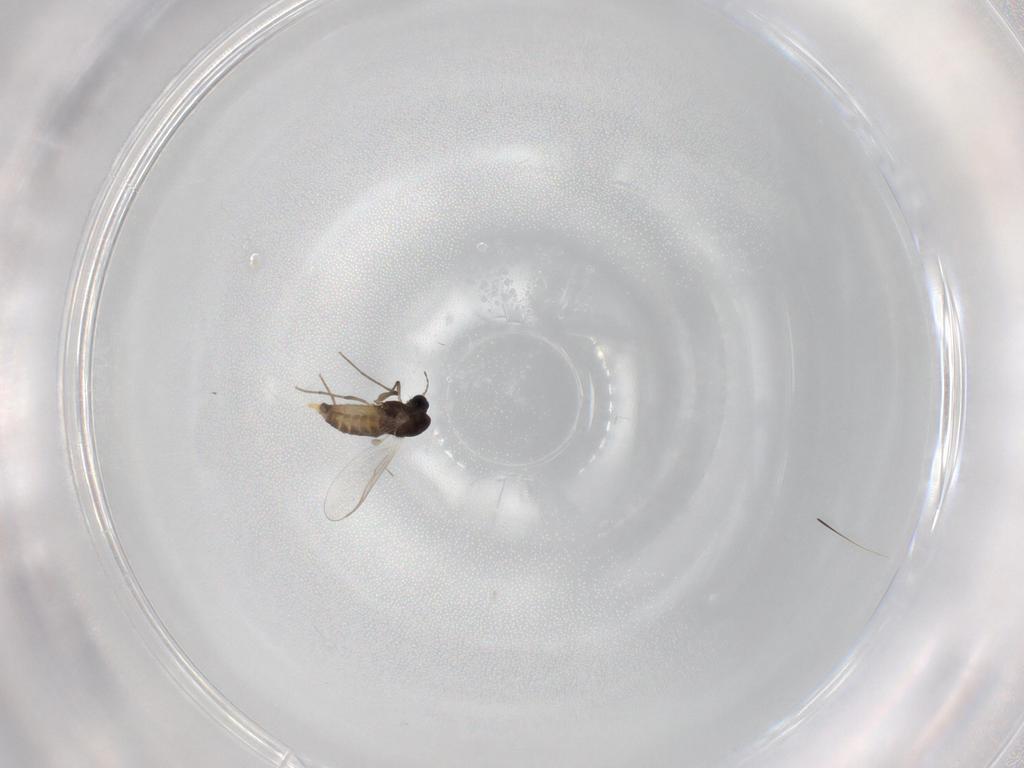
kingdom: Animalia
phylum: Arthropoda
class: Insecta
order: Diptera
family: Chironomidae
